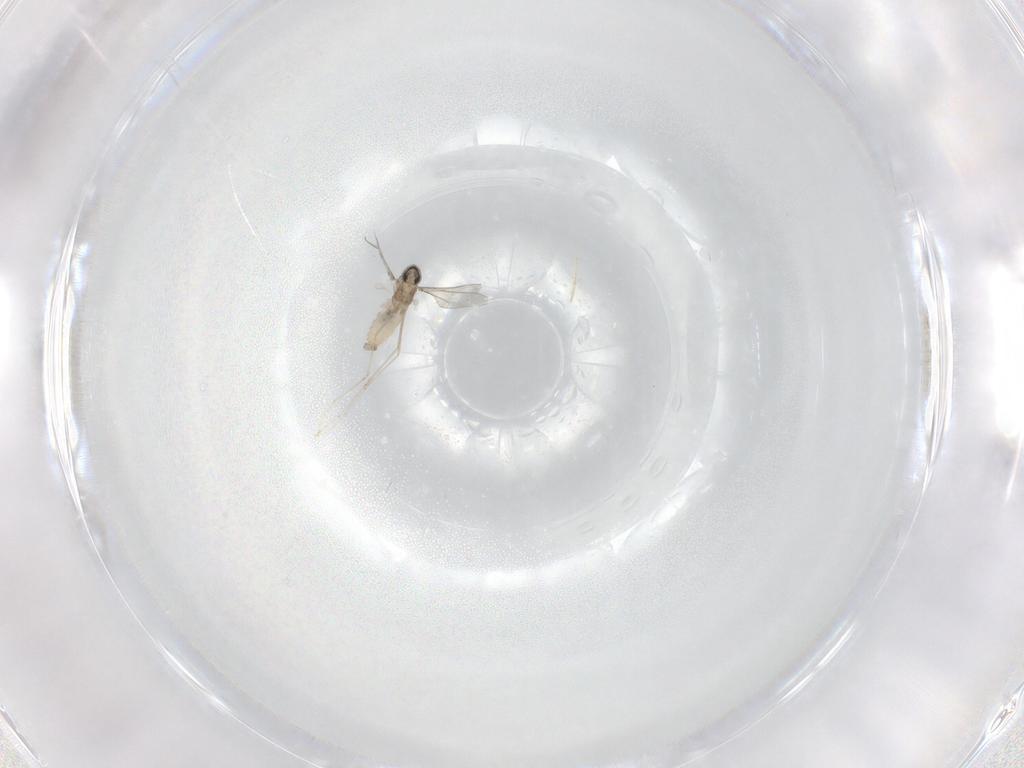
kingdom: Animalia
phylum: Arthropoda
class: Insecta
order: Diptera
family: Cecidomyiidae
